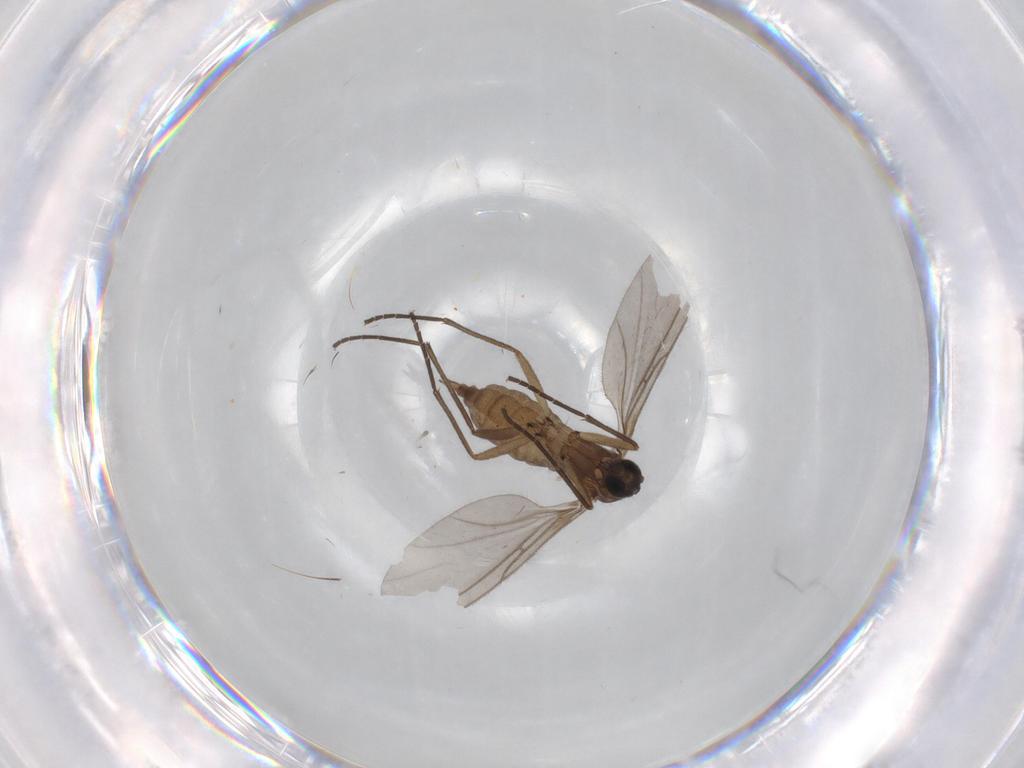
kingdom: Animalia
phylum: Arthropoda
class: Insecta
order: Diptera
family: Sciaridae
